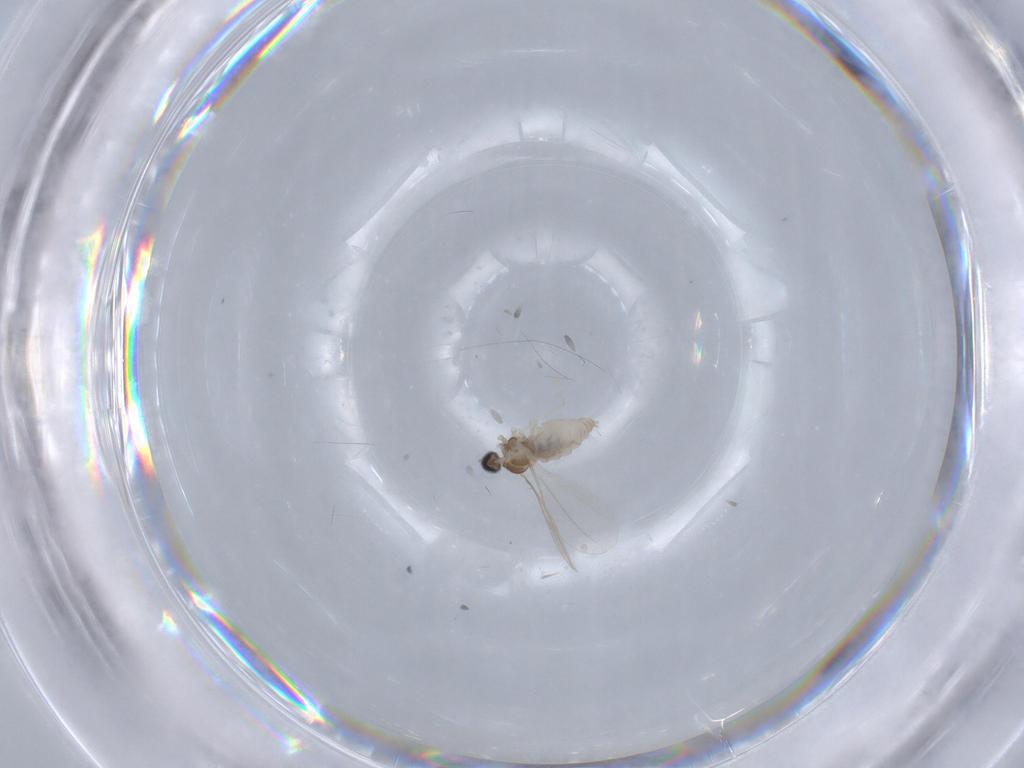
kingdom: Animalia
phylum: Arthropoda
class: Insecta
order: Diptera
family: Cecidomyiidae
